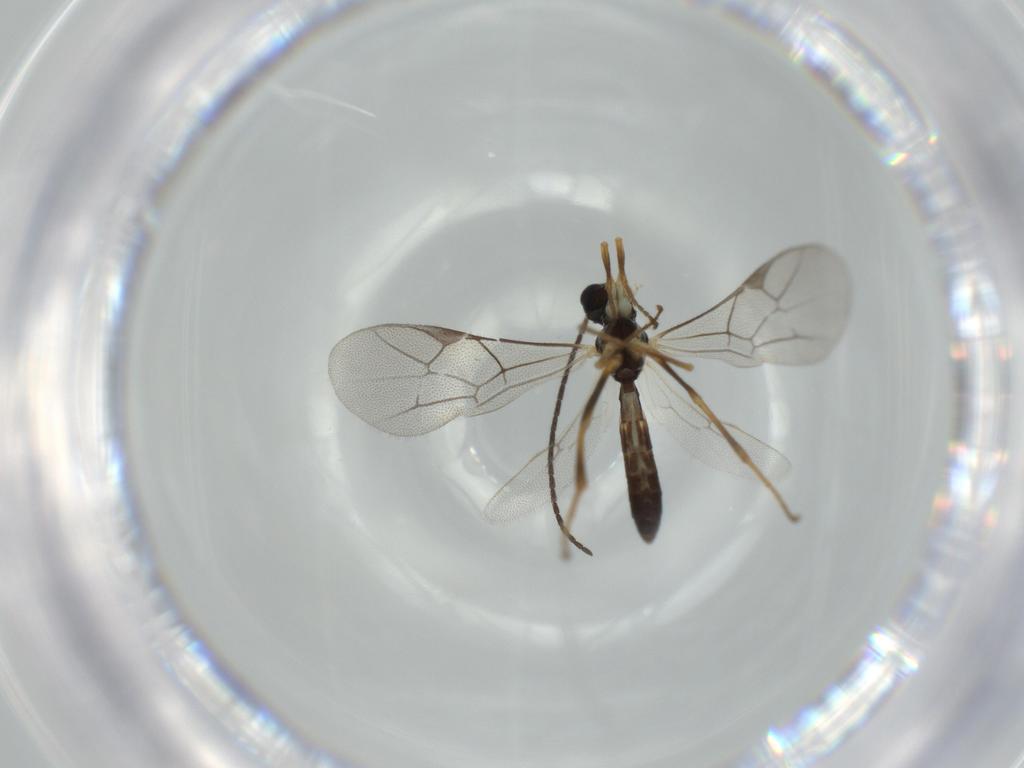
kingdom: Animalia
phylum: Arthropoda
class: Insecta
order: Hymenoptera
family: Ichneumonidae
